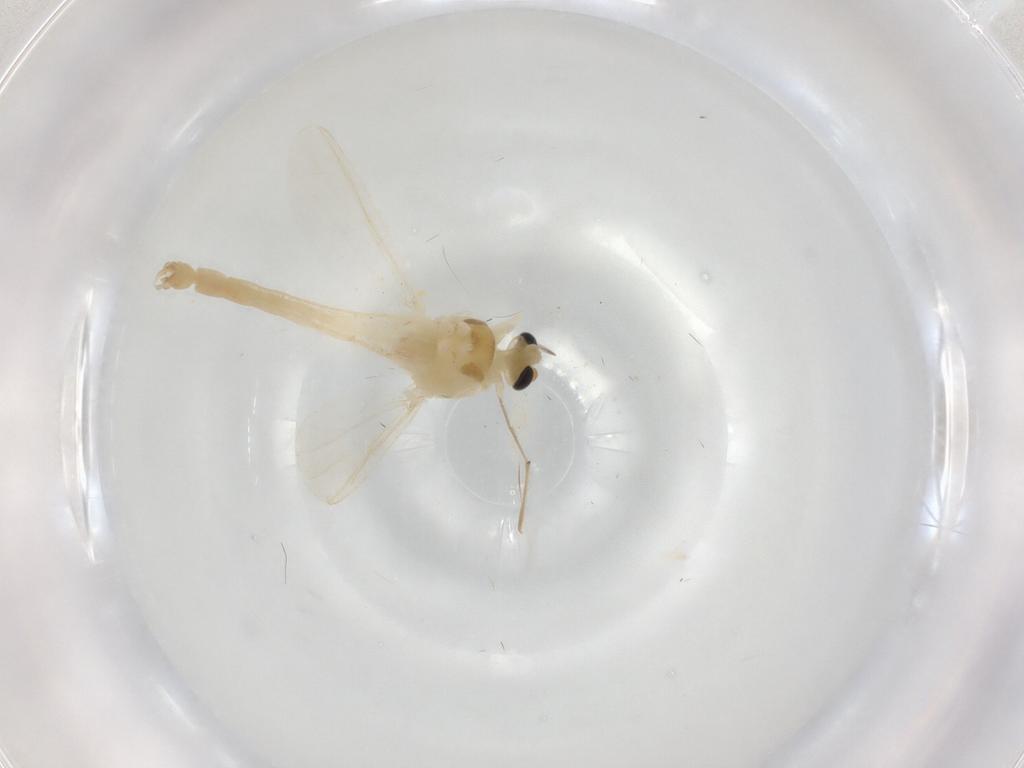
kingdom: Animalia
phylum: Arthropoda
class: Insecta
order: Diptera
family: Chironomidae
